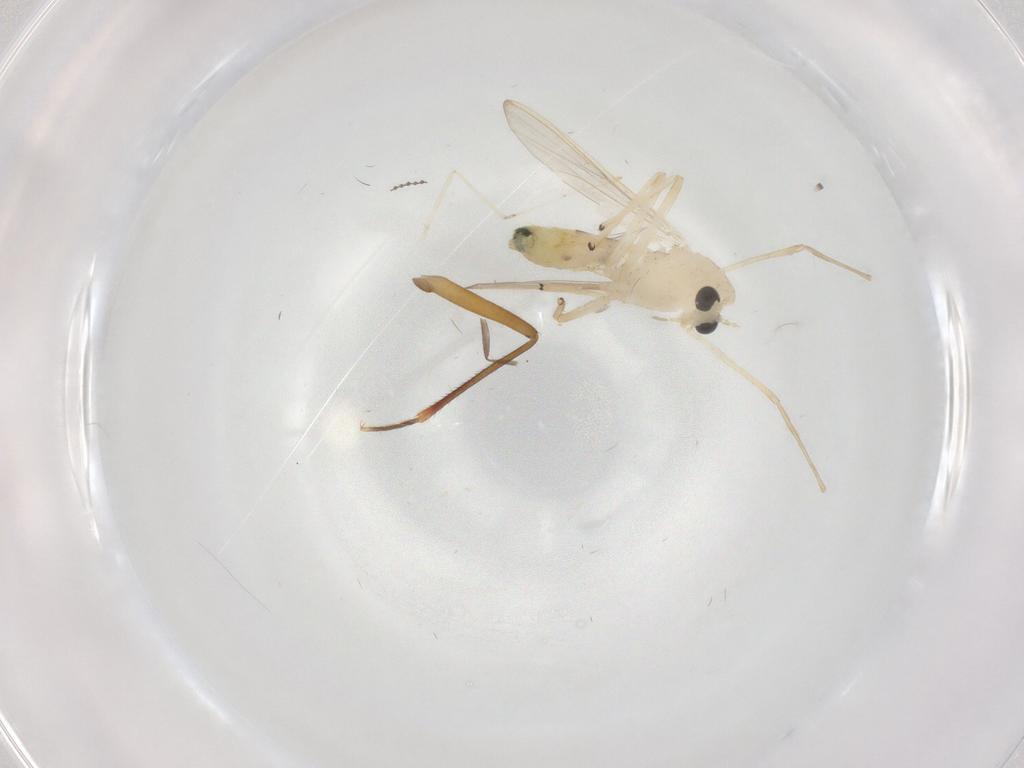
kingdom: Animalia
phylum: Arthropoda
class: Insecta
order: Diptera
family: Chironomidae
